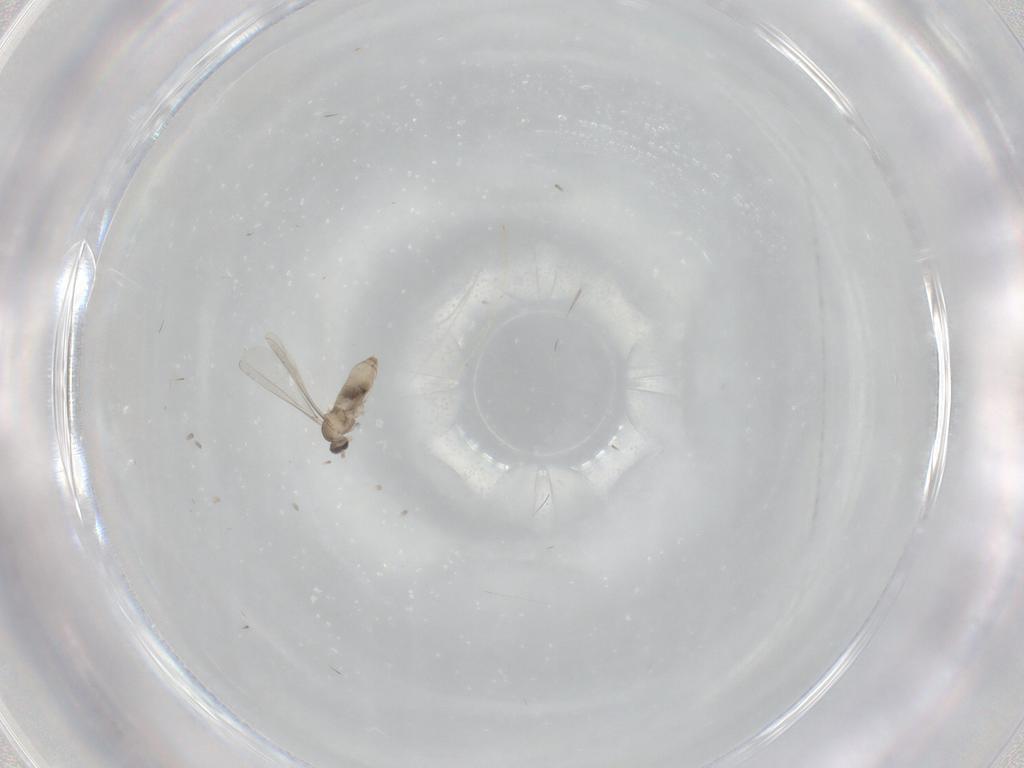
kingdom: Animalia
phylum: Arthropoda
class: Insecta
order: Diptera
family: Cecidomyiidae
